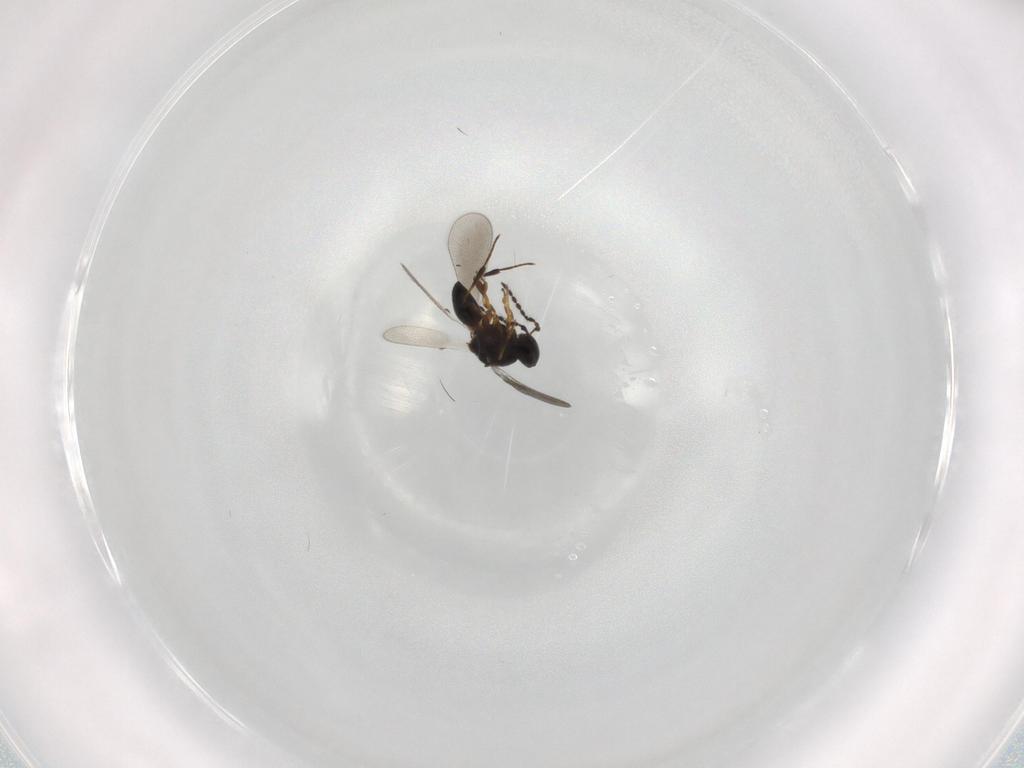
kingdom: Animalia
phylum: Arthropoda
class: Insecta
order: Hymenoptera
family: Platygastridae
